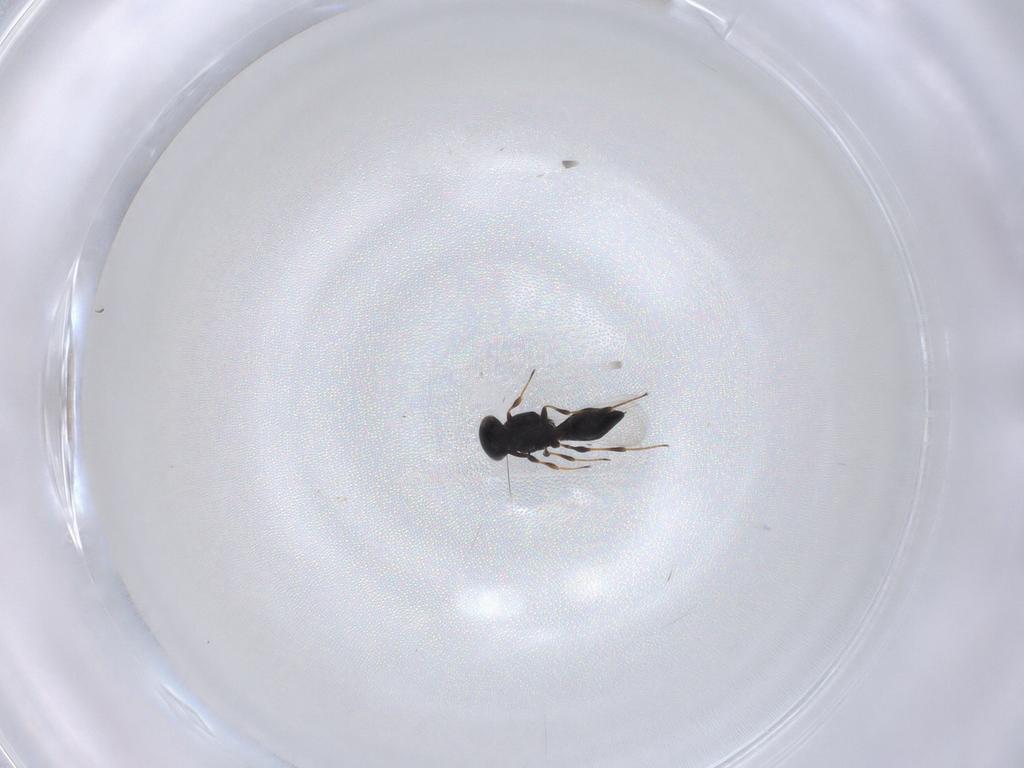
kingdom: Animalia
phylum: Arthropoda
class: Insecta
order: Hymenoptera
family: Platygastridae
